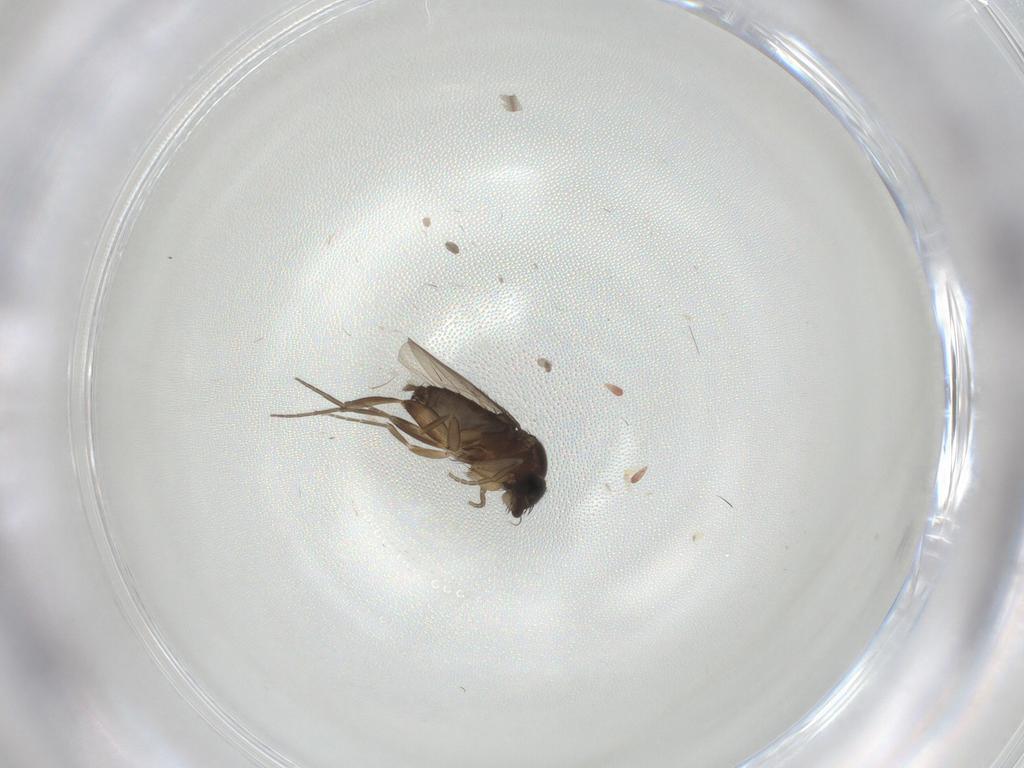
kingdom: Animalia
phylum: Arthropoda
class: Insecta
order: Diptera
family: Phoridae
